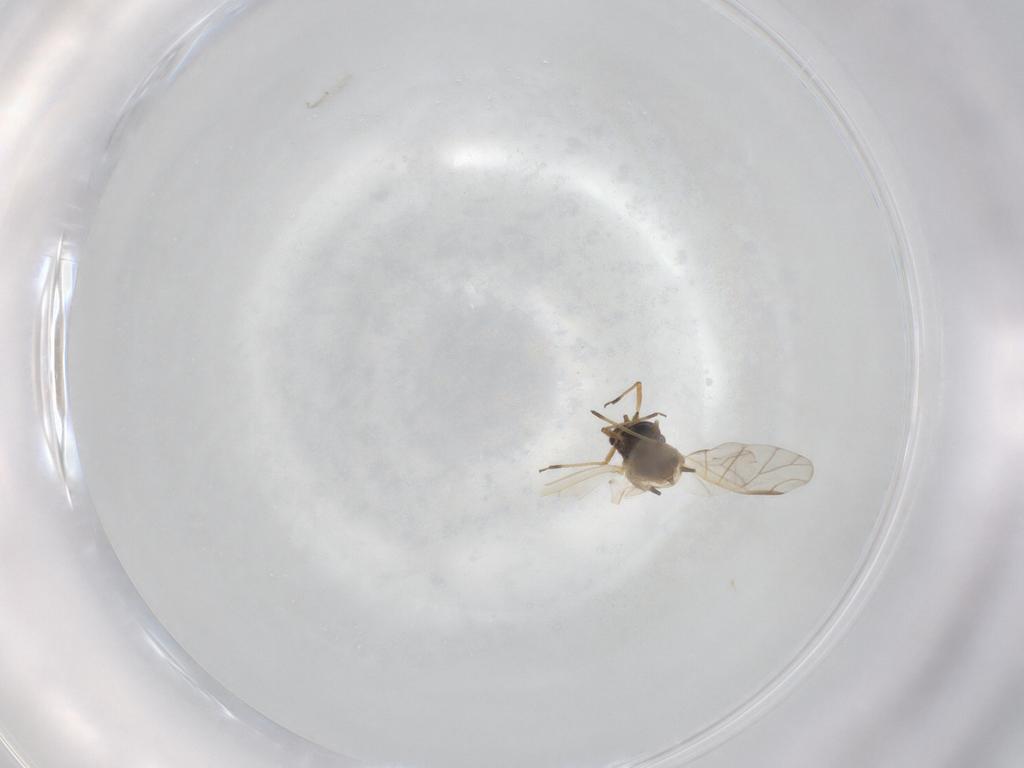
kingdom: Animalia
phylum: Arthropoda
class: Insecta
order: Hemiptera
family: Aphididae
